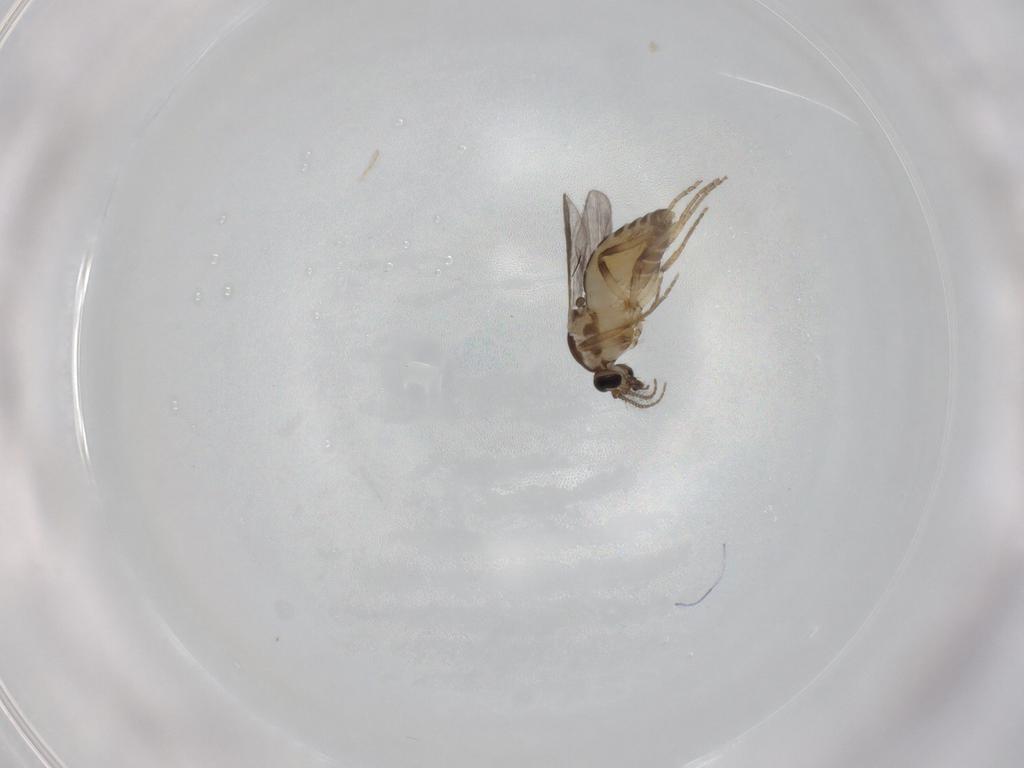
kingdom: Animalia
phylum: Arthropoda
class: Insecta
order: Diptera
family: Ceratopogonidae
